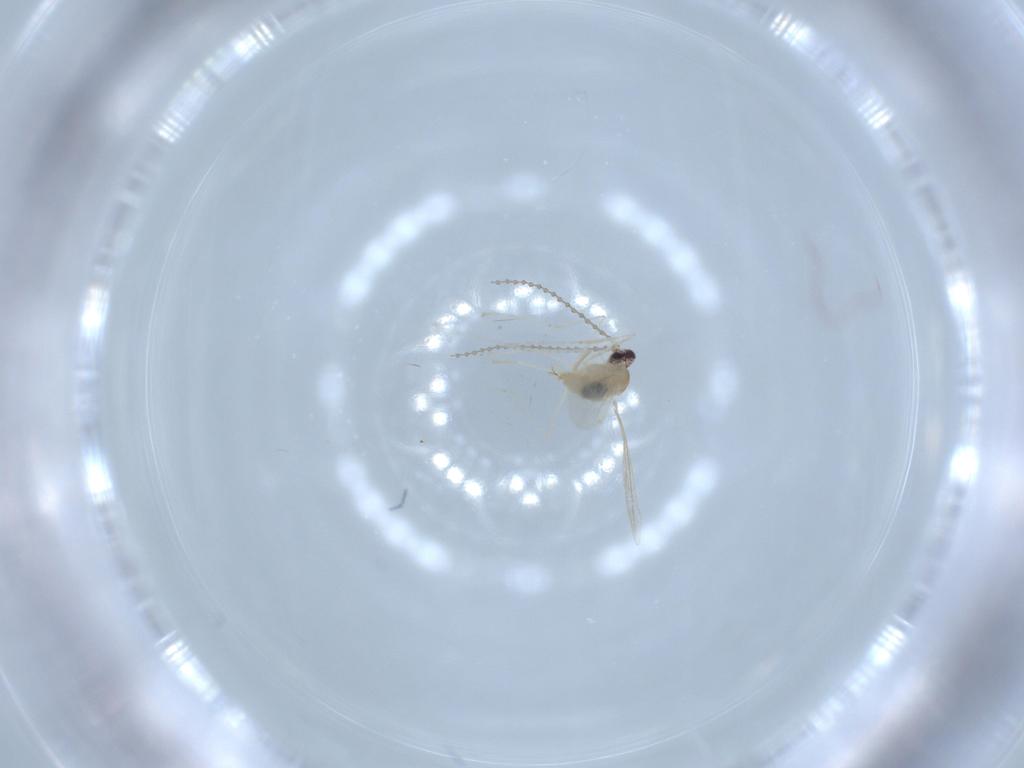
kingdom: Animalia
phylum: Arthropoda
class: Insecta
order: Diptera
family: Cecidomyiidae
